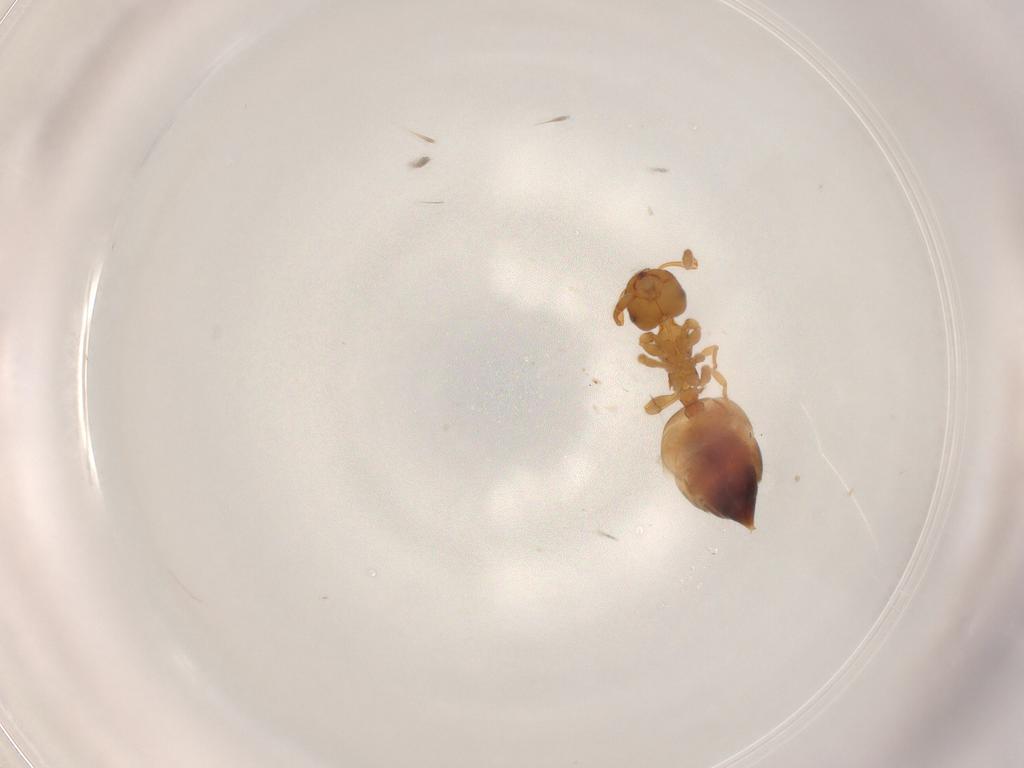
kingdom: Animalia
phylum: Arthropoda
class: Insecta
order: Hymenoptera
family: Formicidae
